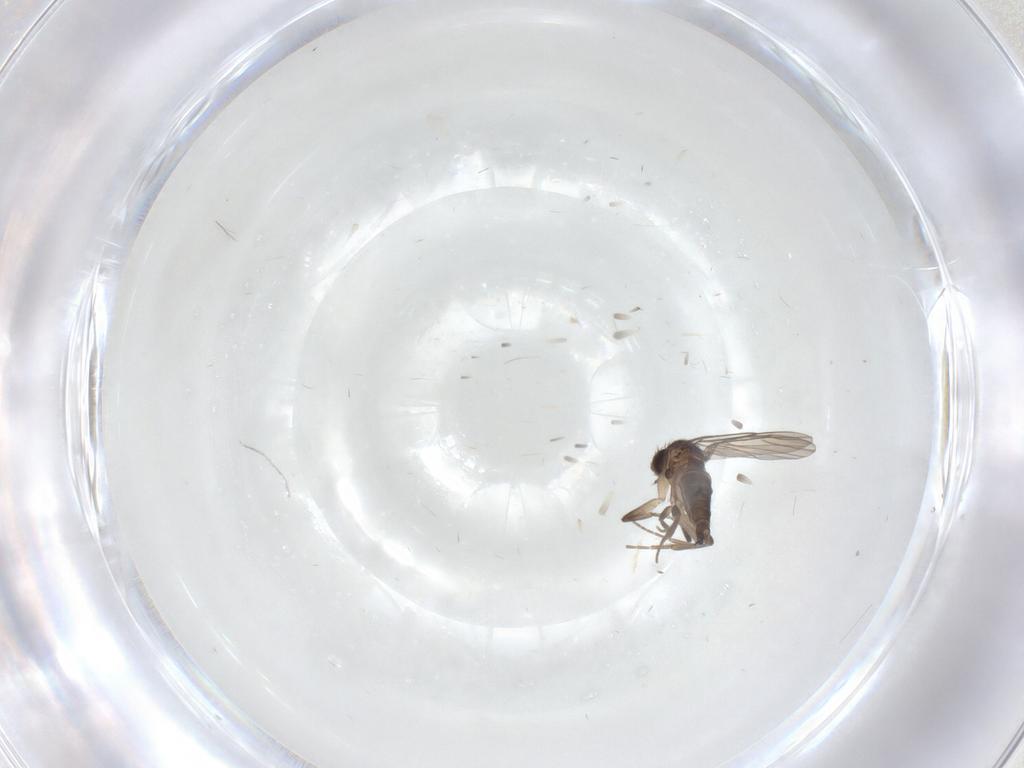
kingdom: Animalia
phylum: Arthropoda
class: Insecta
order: Diptera
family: Phoridae
